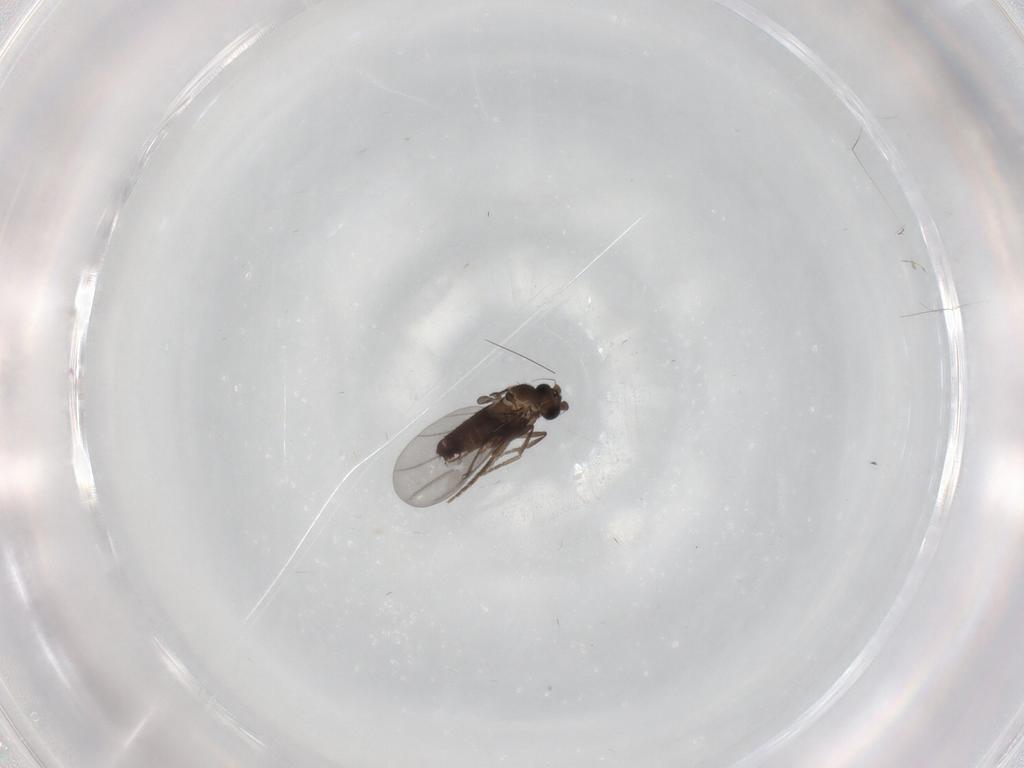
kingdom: Animalia
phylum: Arthropoda
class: Insecta
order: Diptera
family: Phoridae
